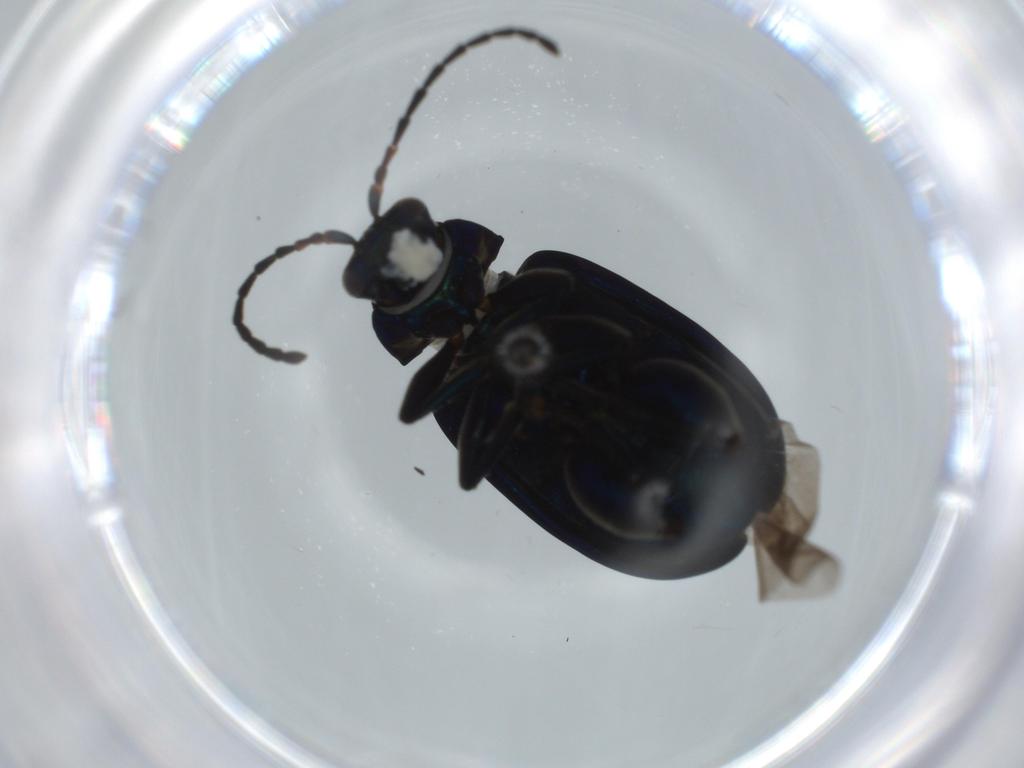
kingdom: Animalia
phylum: Arthropoda
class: Insecta
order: Coleoptera
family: Chrysomelidae
